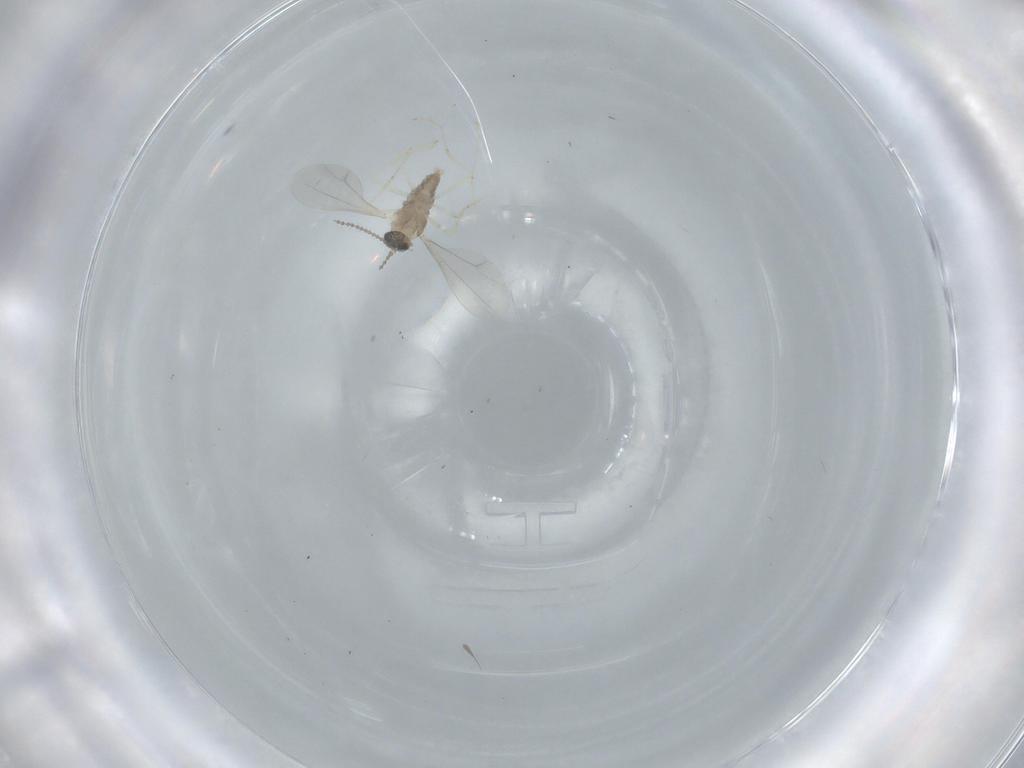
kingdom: Animalia
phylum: Arthropoda
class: Insecta
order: Diptera
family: Cecidomyiidae
